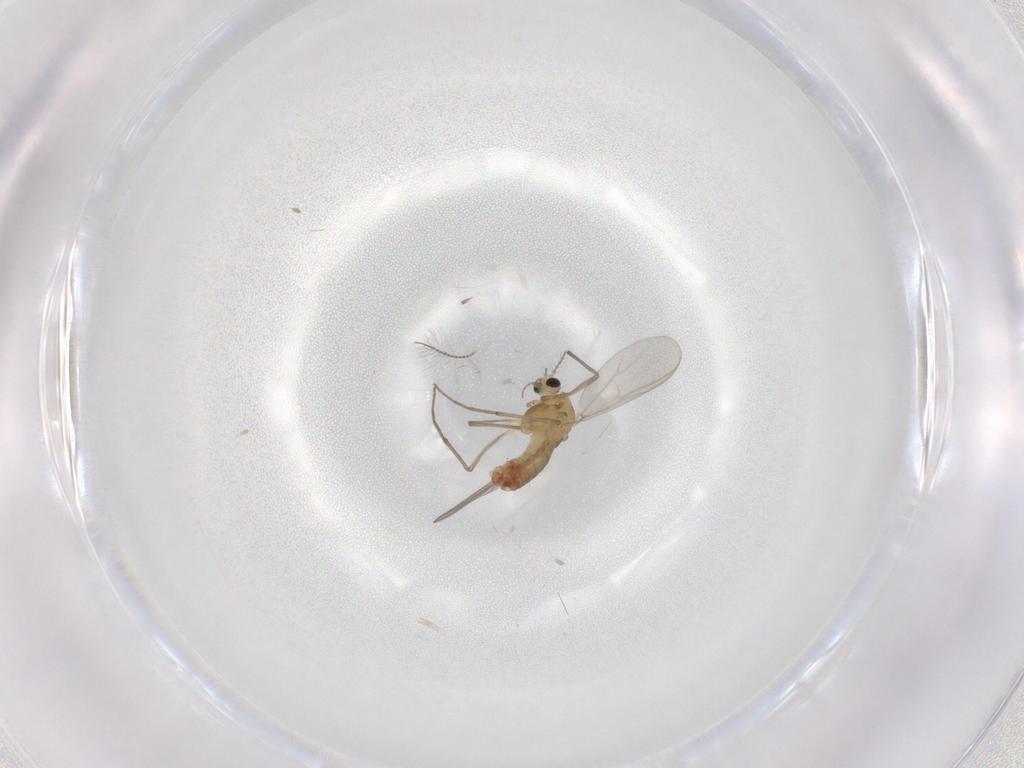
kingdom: Animalia
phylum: Arthropoda
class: Insecta
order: Diptera
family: Chironomidae
